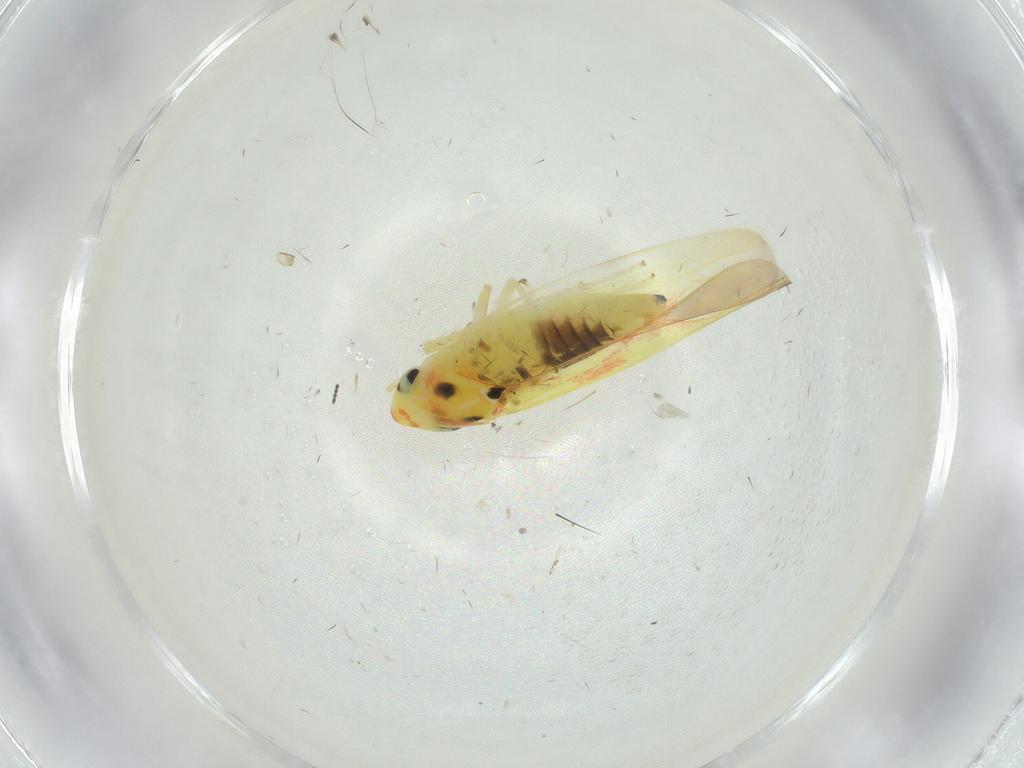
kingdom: Animalia
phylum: Arthropoda
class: Insecta
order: Hemiptera
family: Cicadellidae
